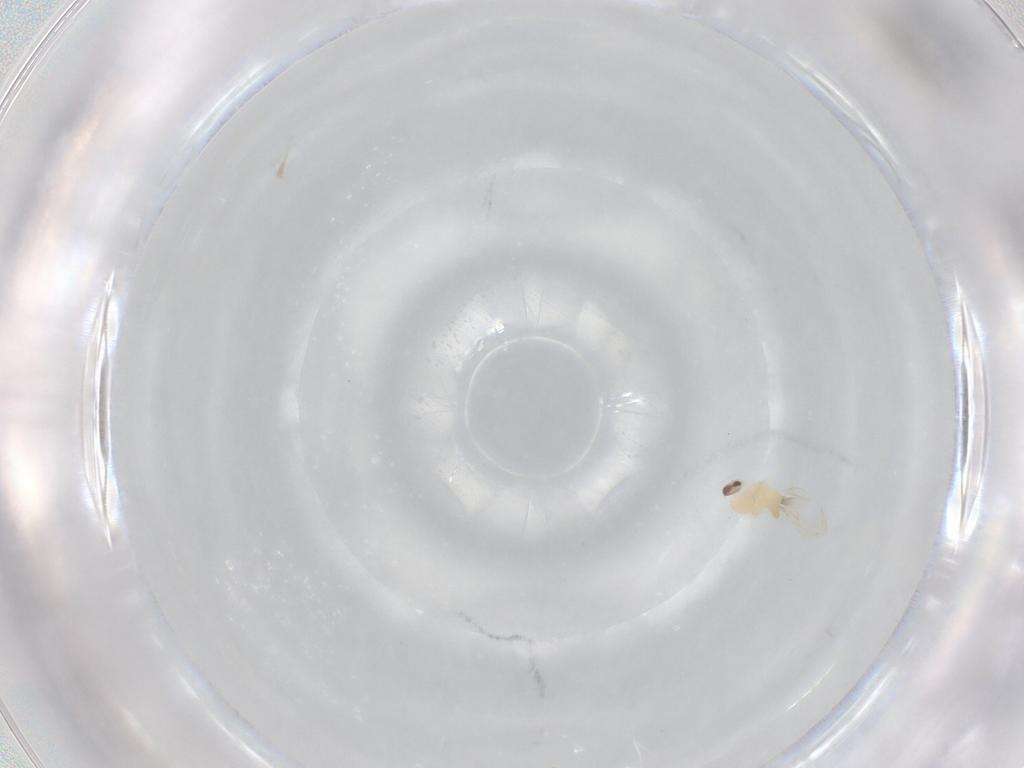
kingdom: Animalia
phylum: Arthropoda
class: Insecta
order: Diptera
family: Cecidomyiidae
